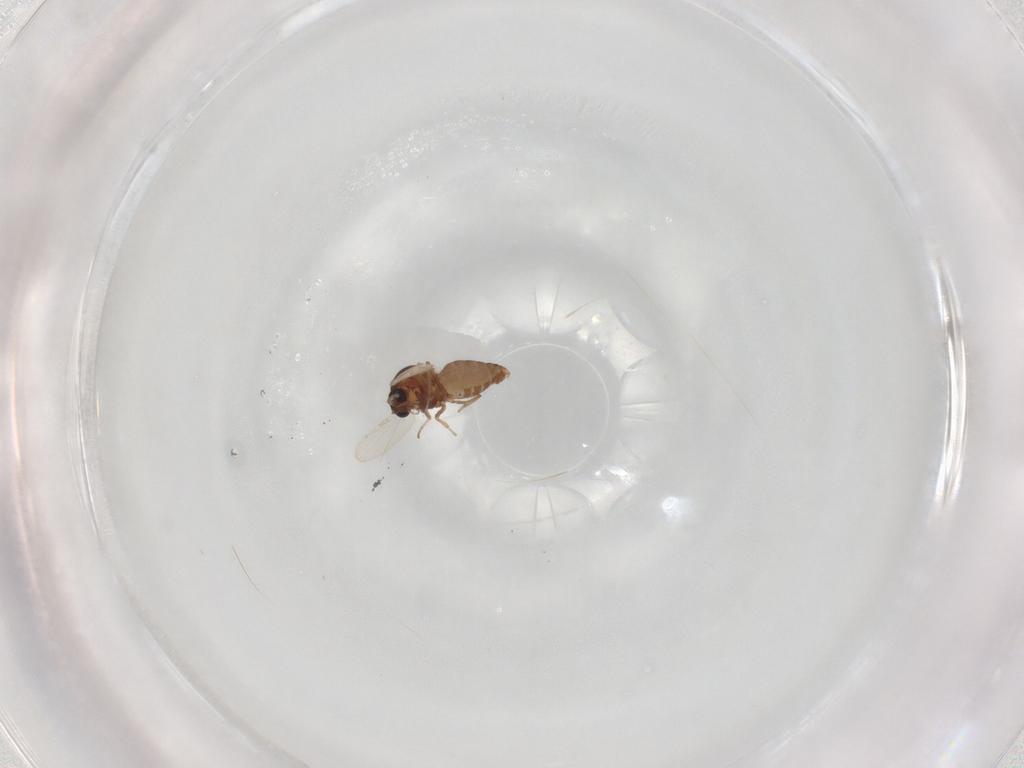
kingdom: Animalia
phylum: Arthropoda
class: Insecta
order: Diptera
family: Ceratopogonidae
